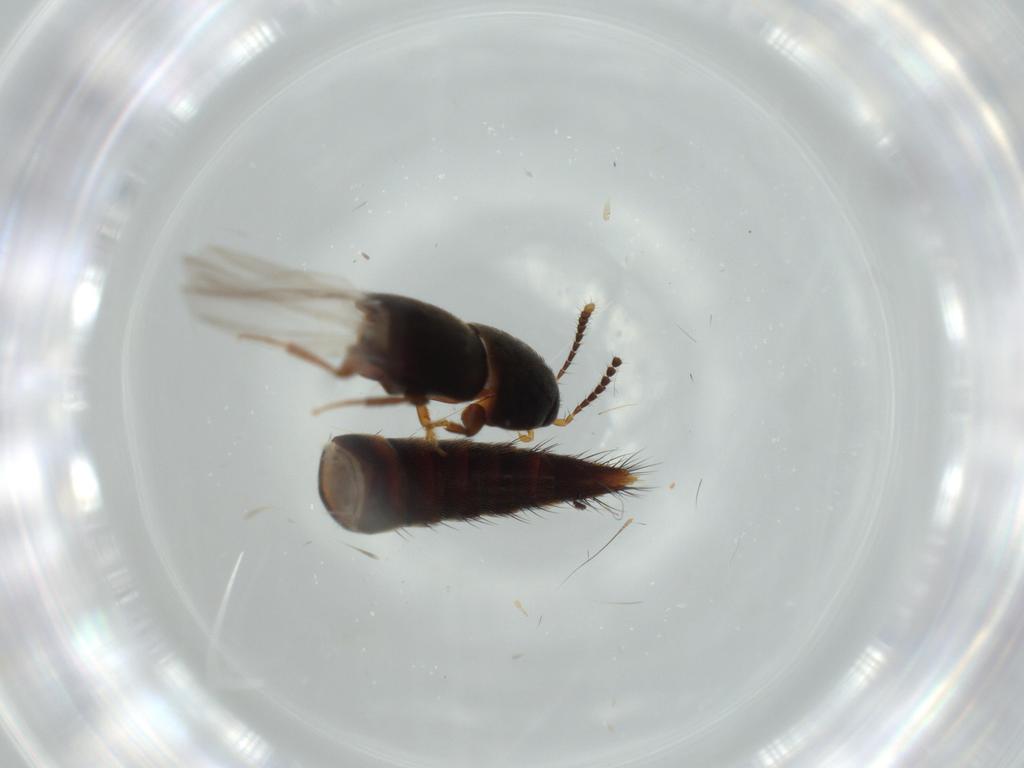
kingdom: Animalia
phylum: Arthropoda
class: Insecta
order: Coleoptera
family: Staphylinidae
